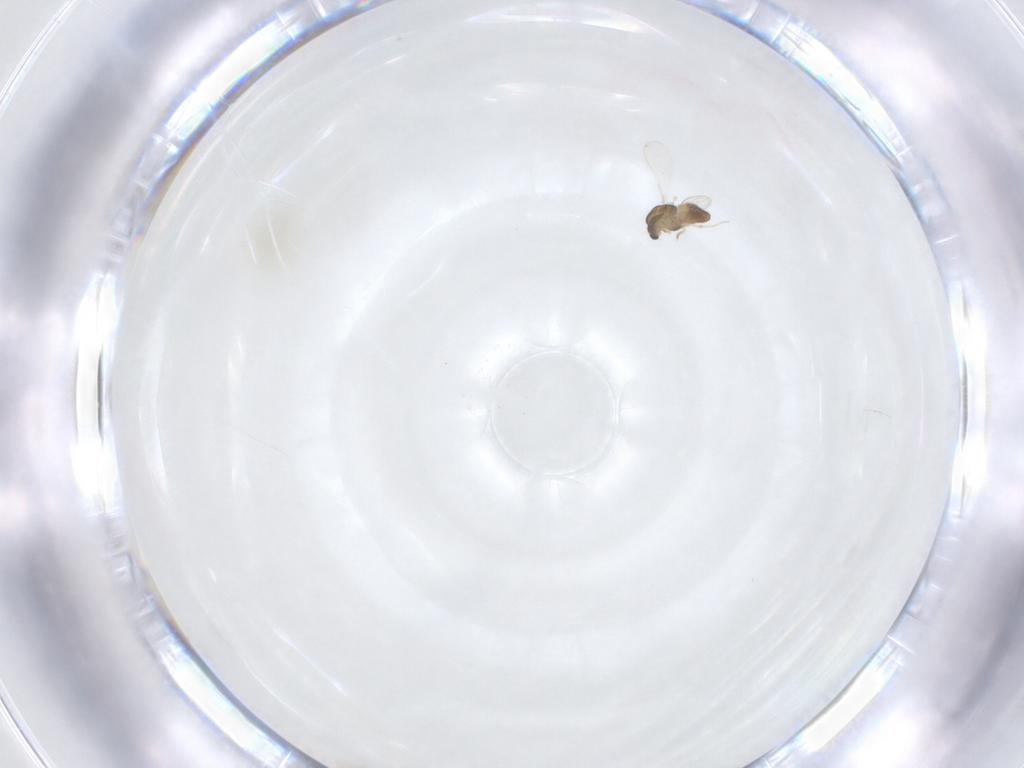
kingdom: Animalia
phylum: Arthropoda
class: Insecta
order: Diptera
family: Chironomidae
